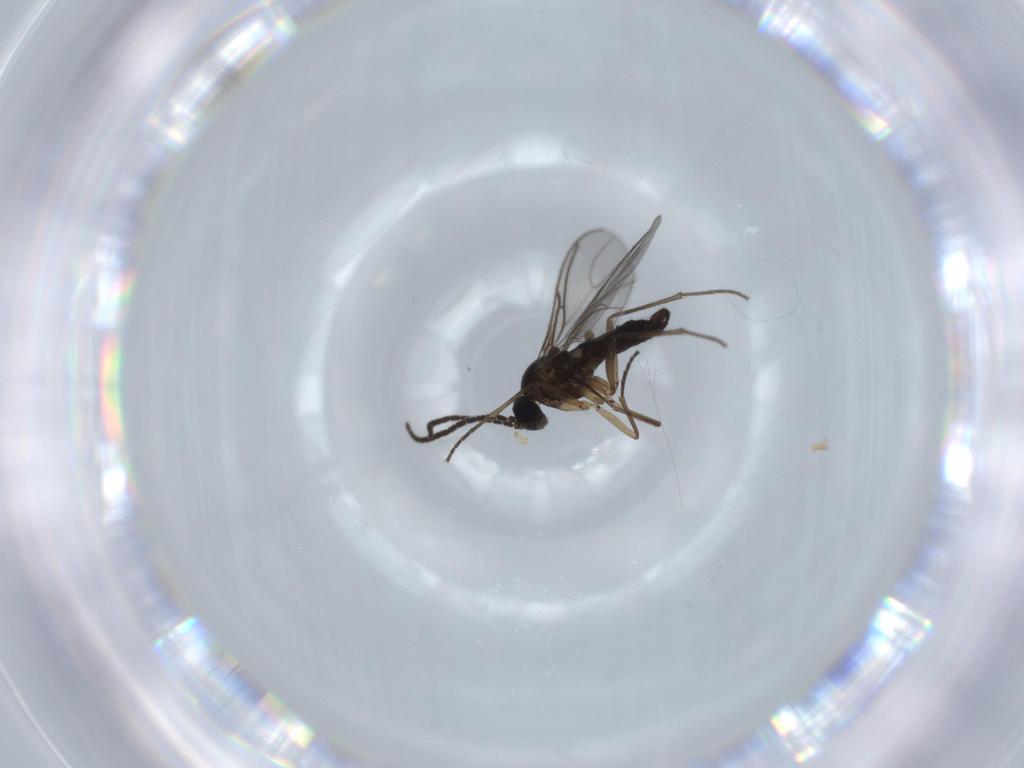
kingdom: Animalia
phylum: Arthropoda
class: Insecta
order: Diptera
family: Sciaridae
